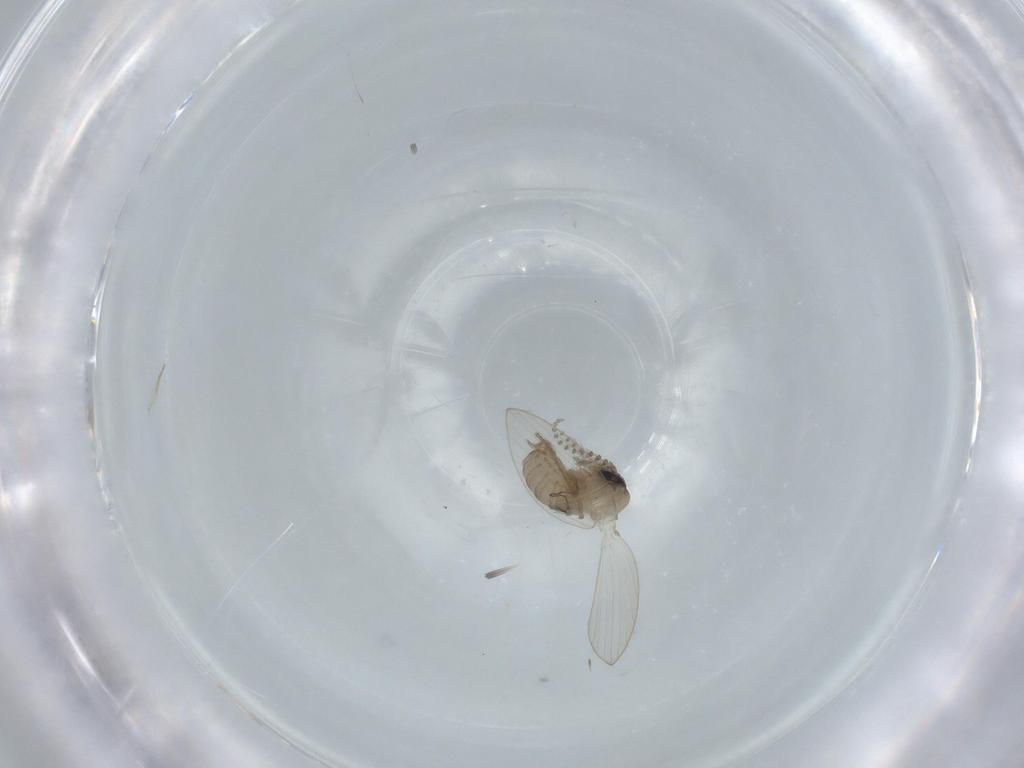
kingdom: Animalia
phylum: Arthropoda
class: Insecta
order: Diptera
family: Psychodidae
